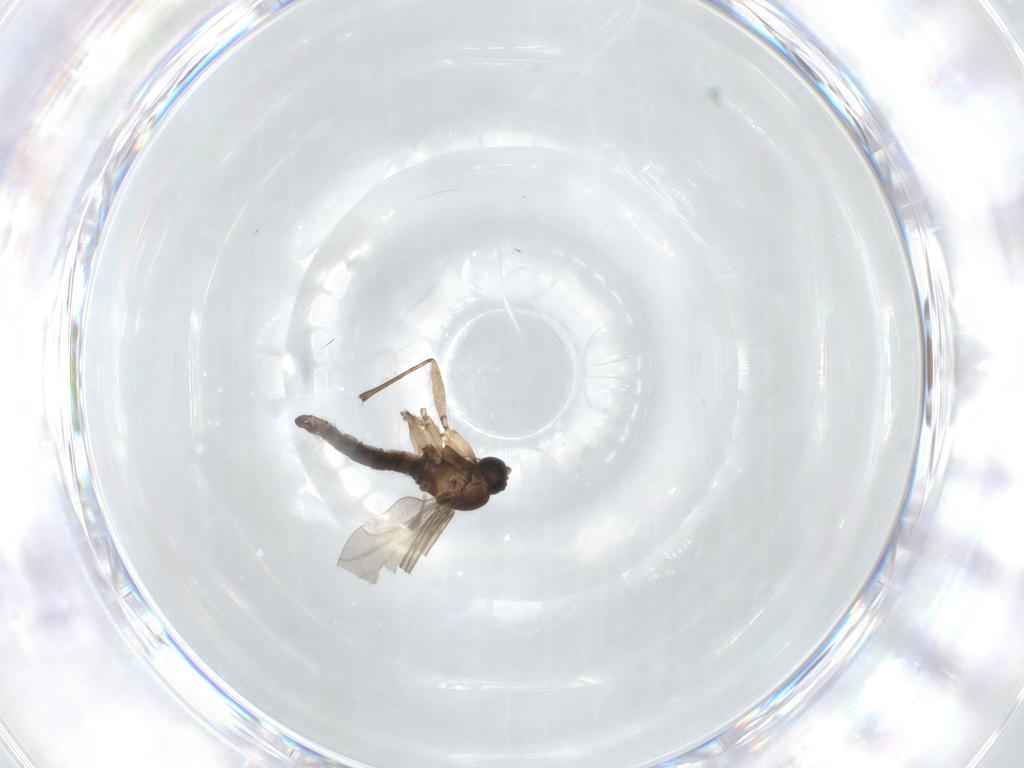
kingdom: Animalia
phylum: Arthropoda
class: Insecta
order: Diptera
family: Sciaridae
